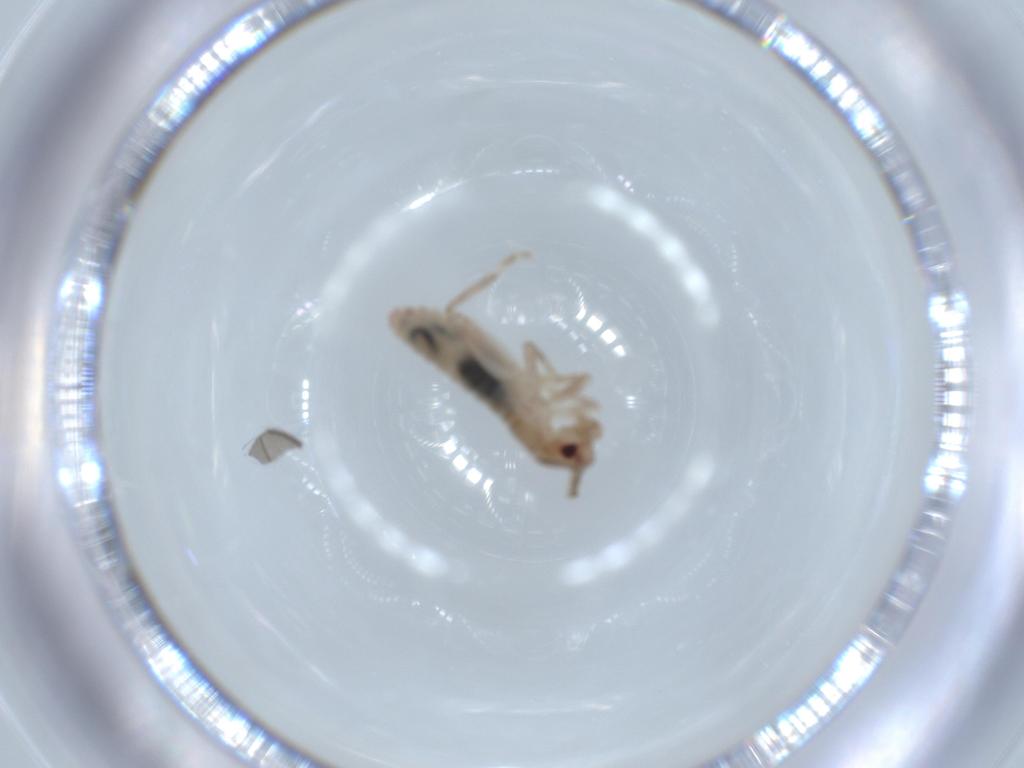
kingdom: Animalia
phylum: Arthropoda
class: Insecta
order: Orthoptera
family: Mogoplistidae
